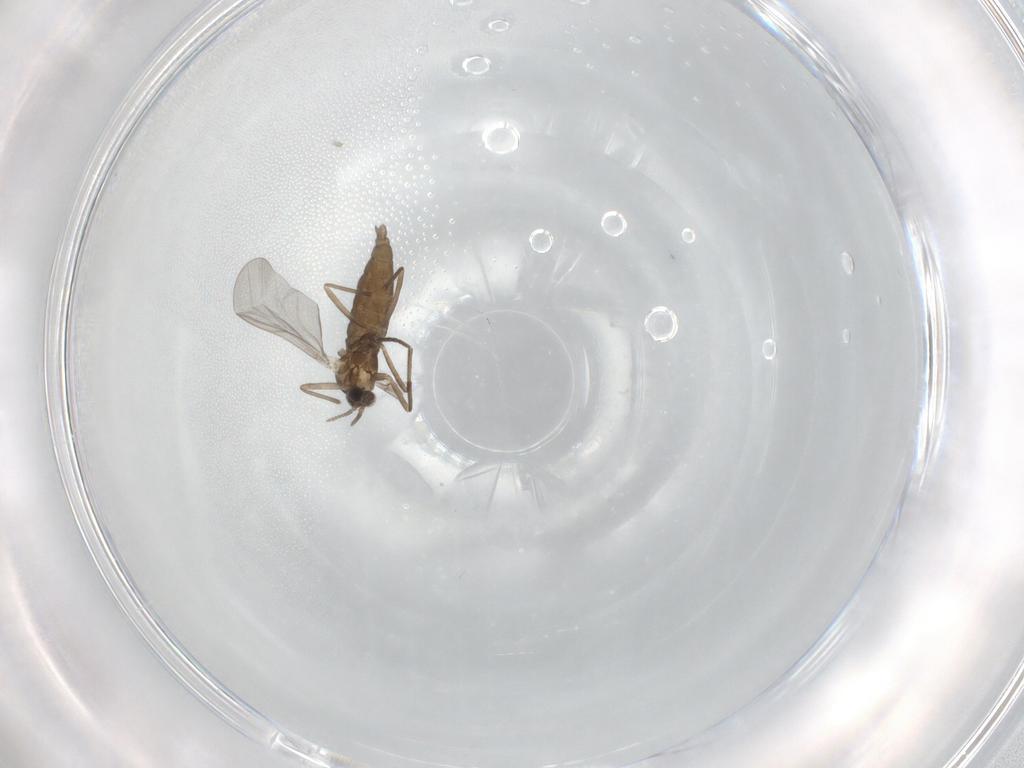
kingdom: Animalia
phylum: Arthropoda
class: Insecta
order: Diptera
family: Cecidomyiidae
